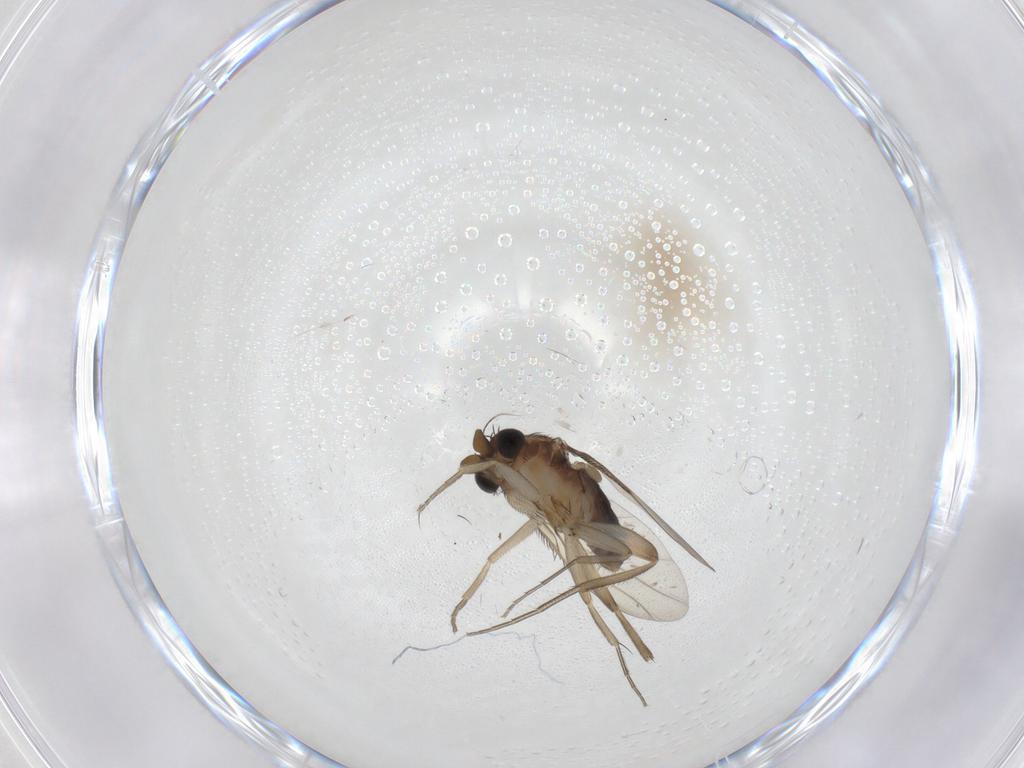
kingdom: Animalia
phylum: Arthropoda
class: Insecta
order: Diptera
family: Phoridae
